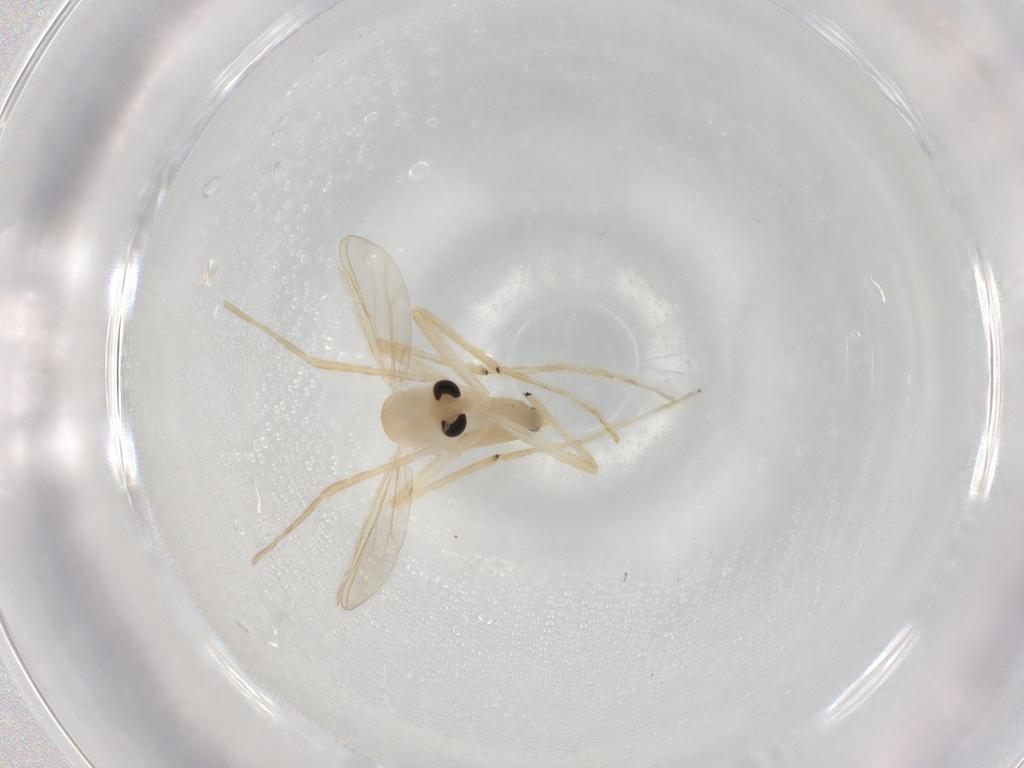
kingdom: Animalia
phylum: Arthropoda
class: Insecta
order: Diptera
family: Chironomidae
